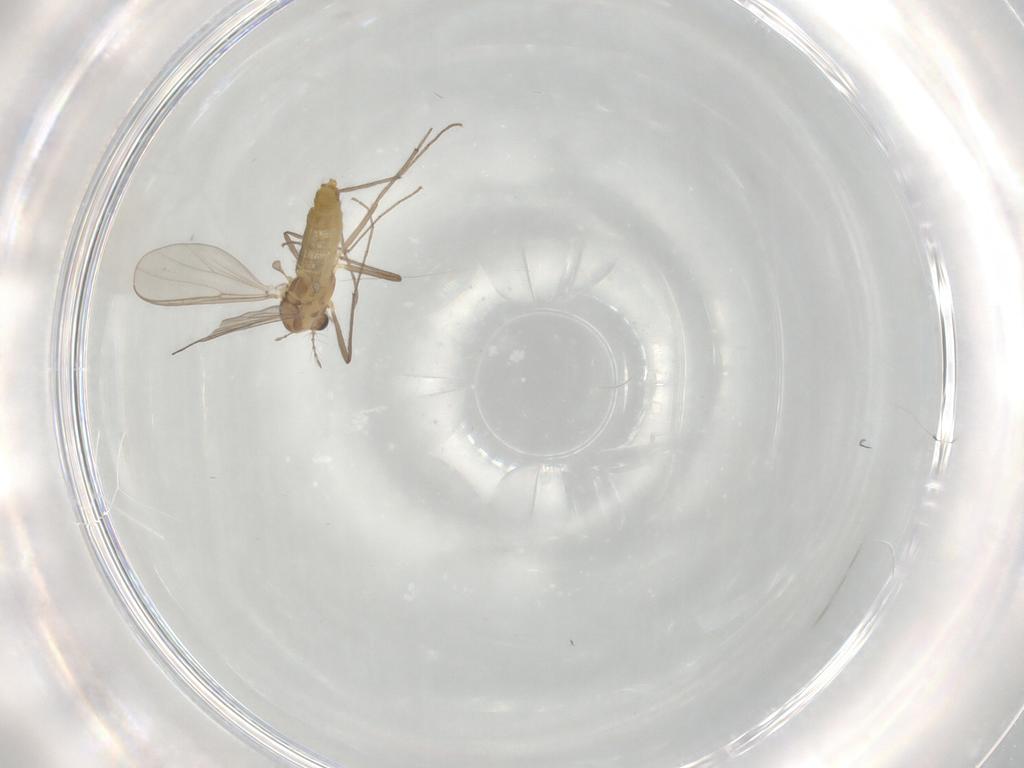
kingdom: Animalia
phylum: Arthropoda
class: Insecta
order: Diptera
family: Chironomidae
